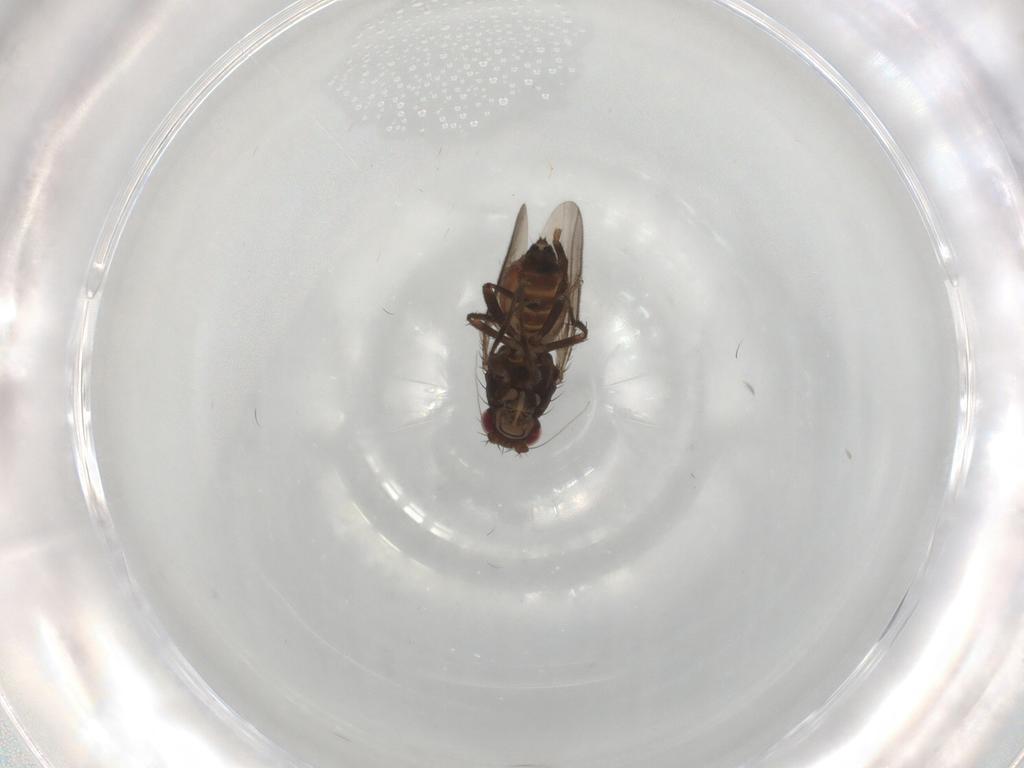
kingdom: Animalia
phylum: Arthropoda
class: Insecta
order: Diptera
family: Sphaeroceridae
